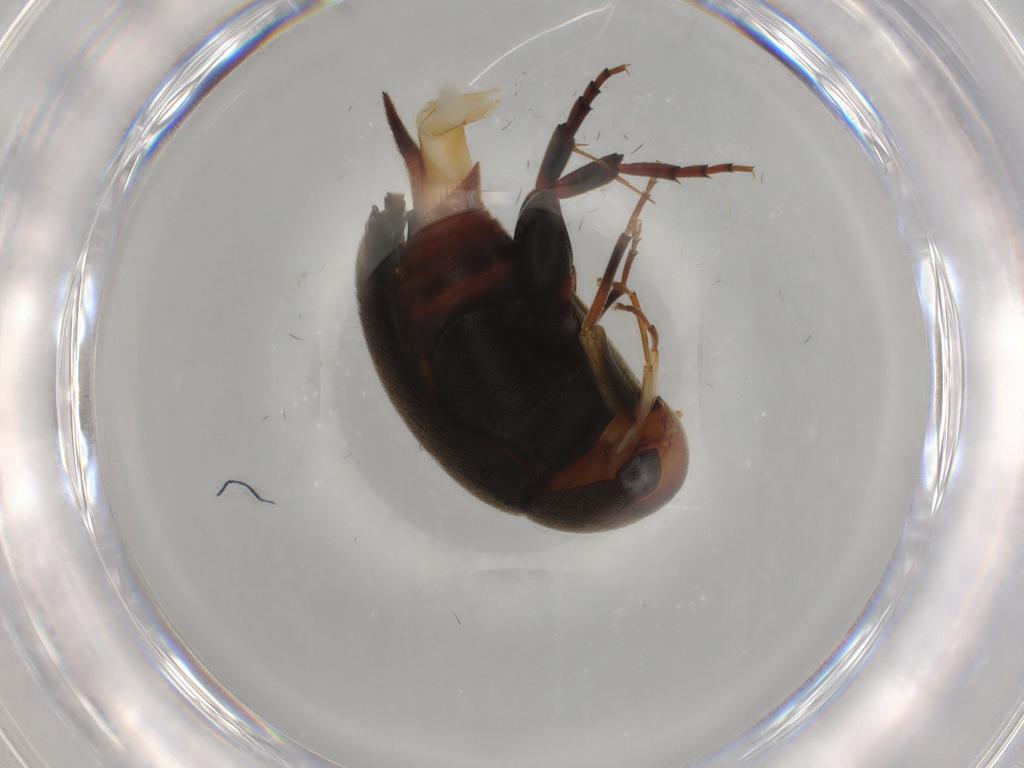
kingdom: Animalia
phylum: Arthropoda
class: Insecta
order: Coleoptera
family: Mordellidae
